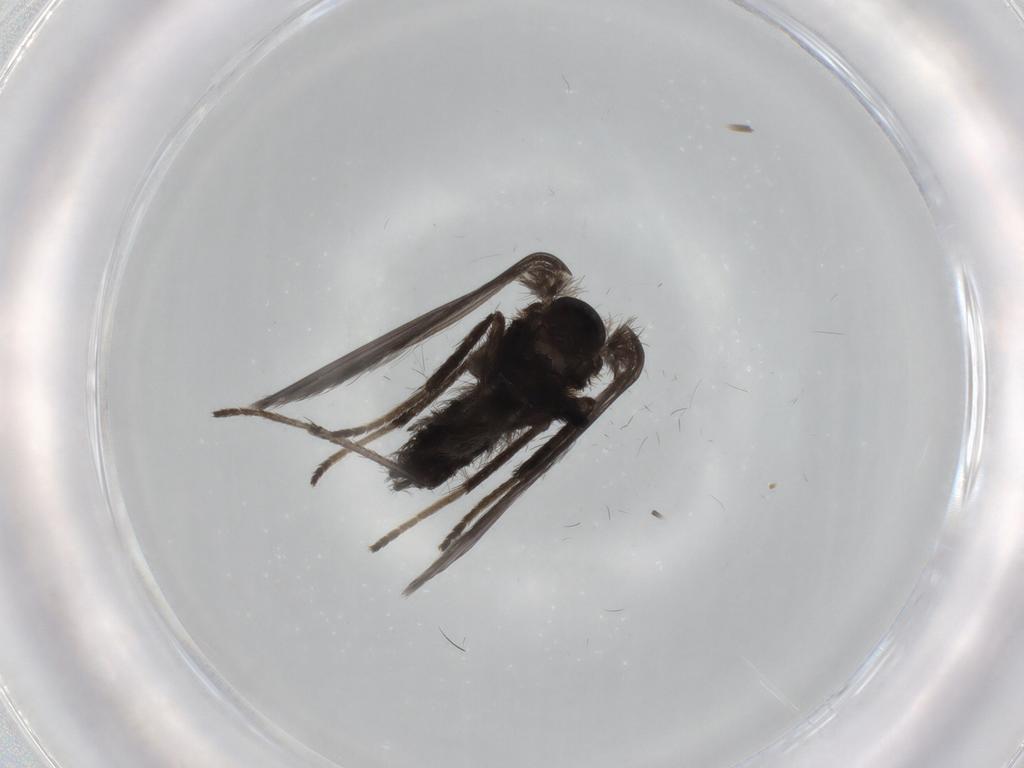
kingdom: Animalia
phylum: Arthropoda
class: Insecta
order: Diptera
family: Psychodidae
